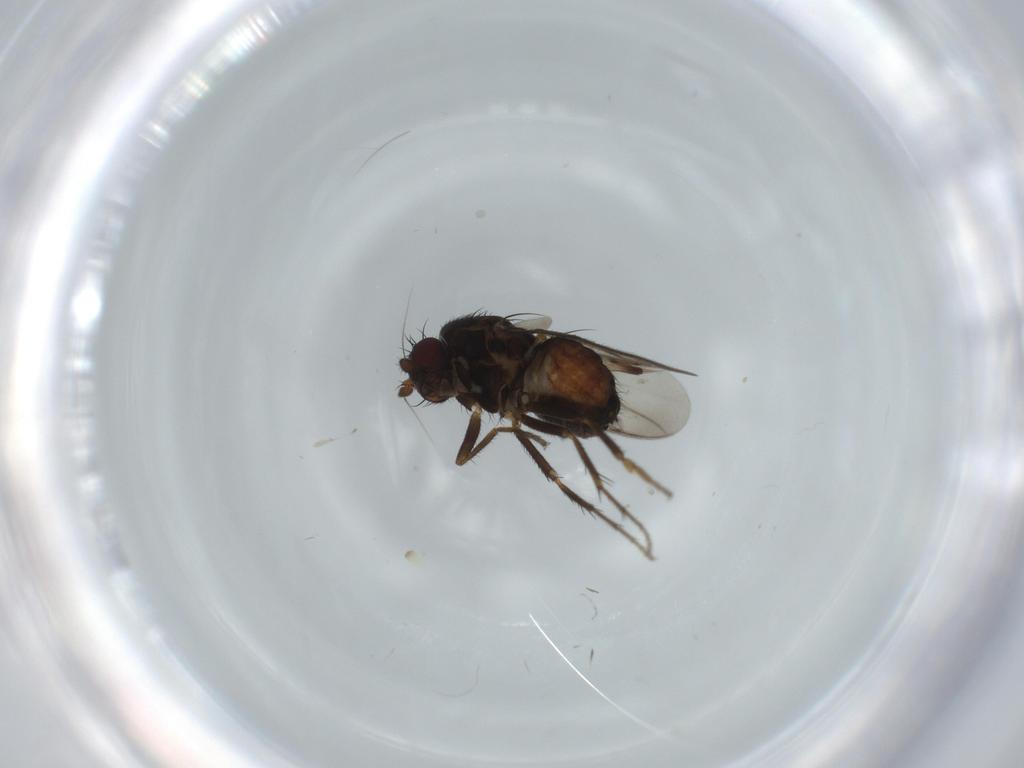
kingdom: Animalia
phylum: Arthropoda
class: Insecta
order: Diptera
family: Sphaeroceridae
